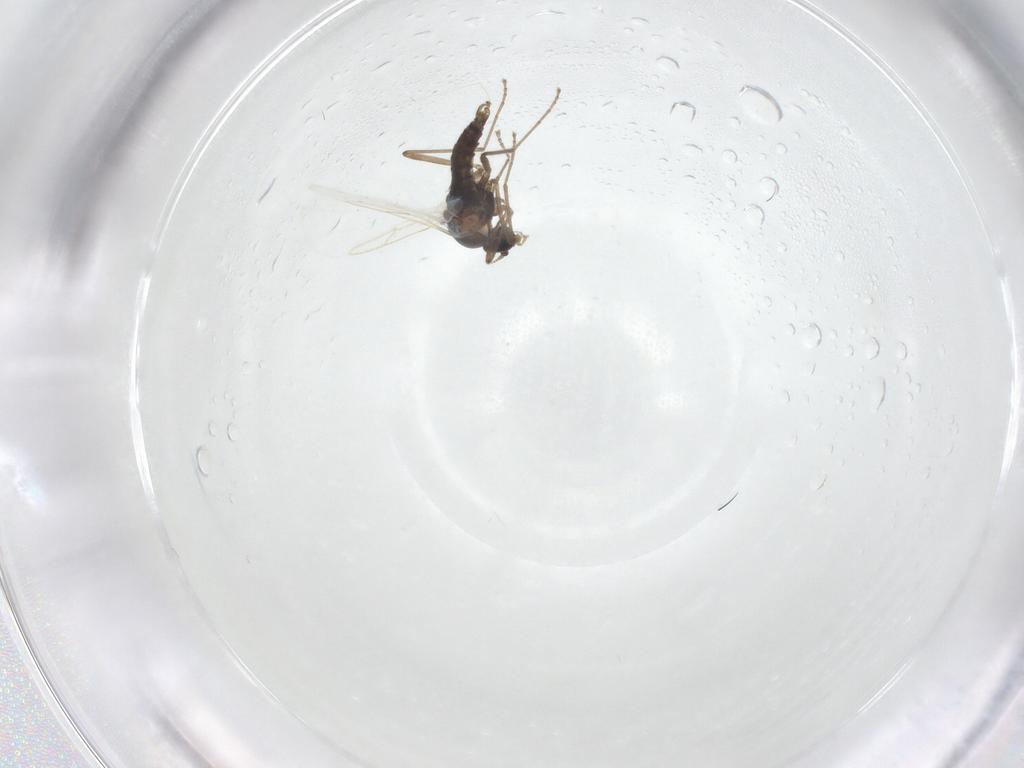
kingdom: Animalia
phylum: Arthropoda
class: Insecta
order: Diptera
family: Cecidomyiidae
